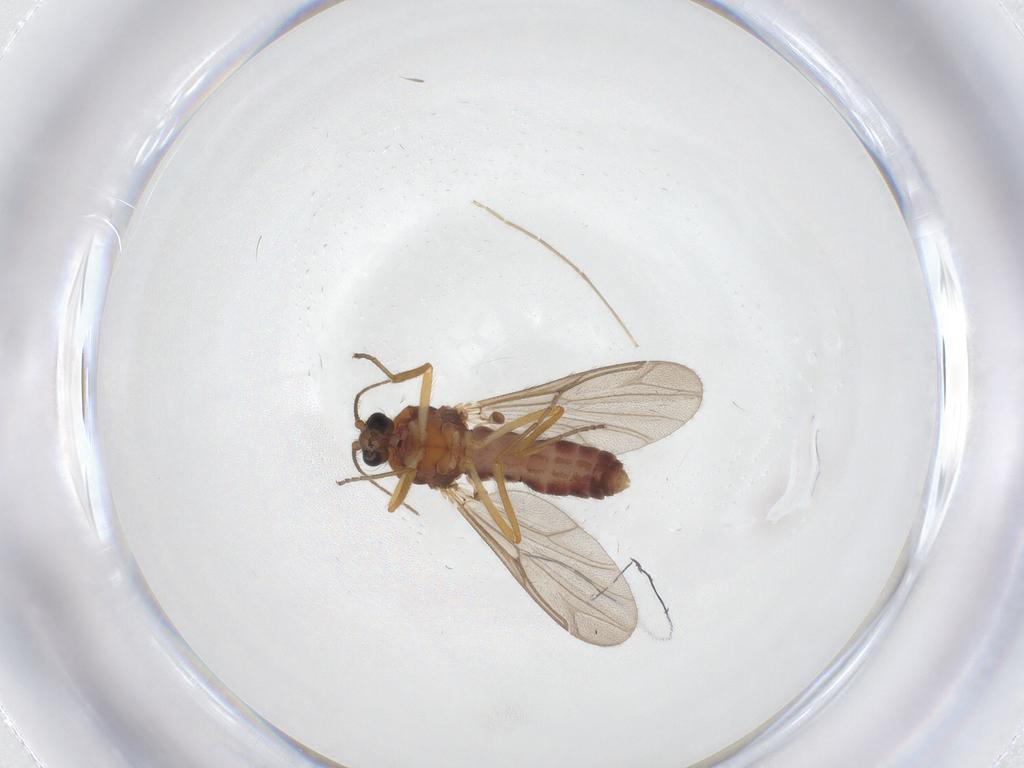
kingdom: Animalia
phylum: Arthropoda
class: Insecta
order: Diptera
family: Ceratopogonidae
